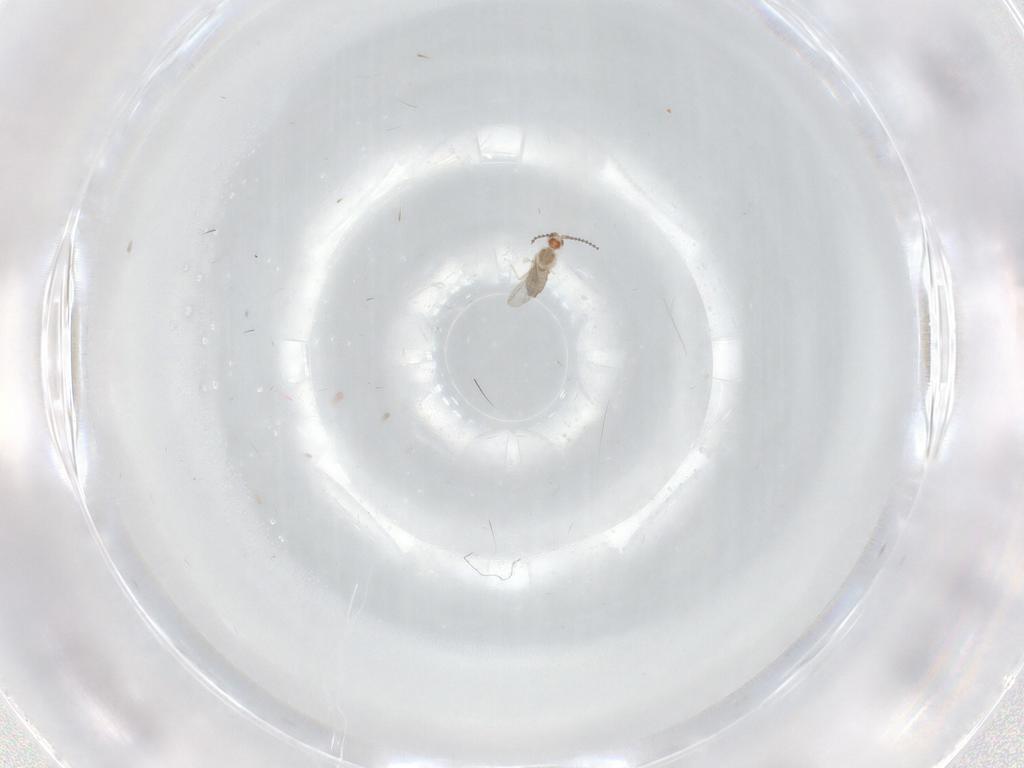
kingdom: Animalia
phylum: Arthropoda
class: Insecta
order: Diptera
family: Cecidomyiidae
